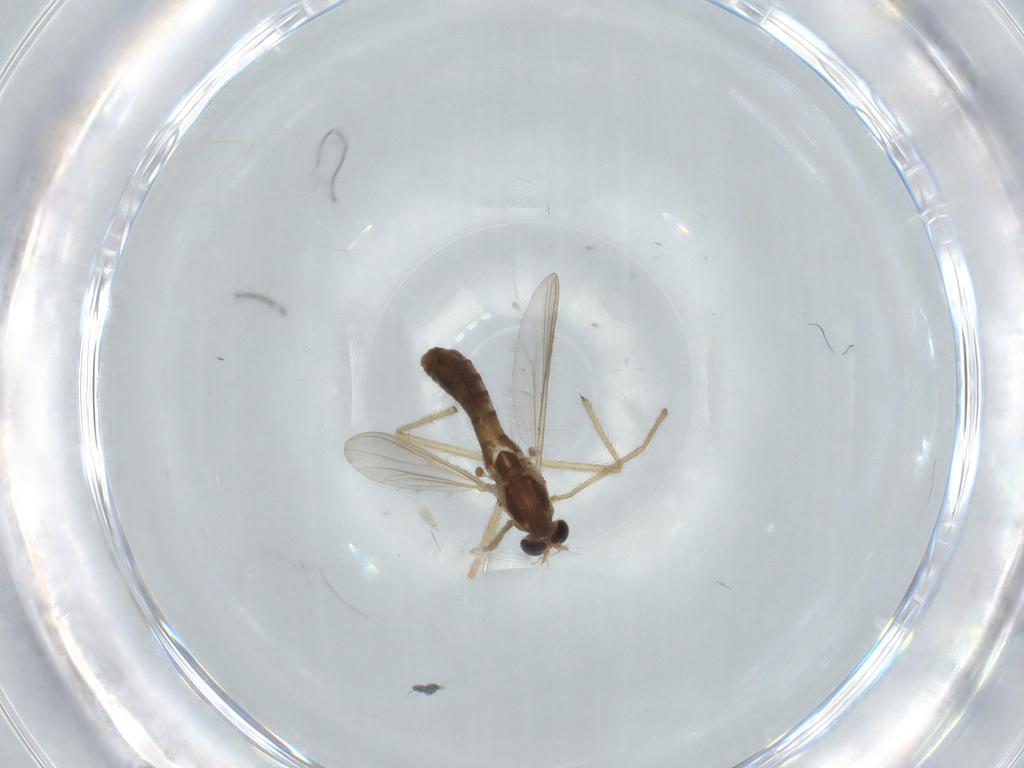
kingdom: Animalia
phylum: Arthropoda
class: Insecta
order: Diptera
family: Chironomidae
